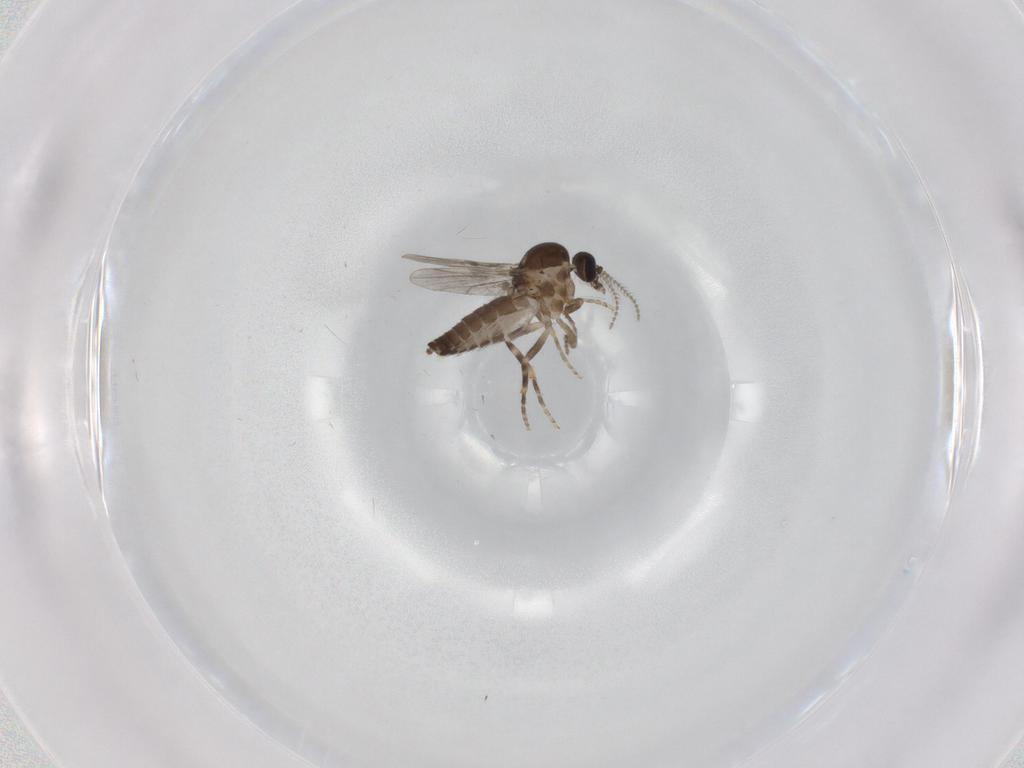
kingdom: Animalia
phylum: Arthropoda
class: Insecta
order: Diptera
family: Ceratopogonidae
